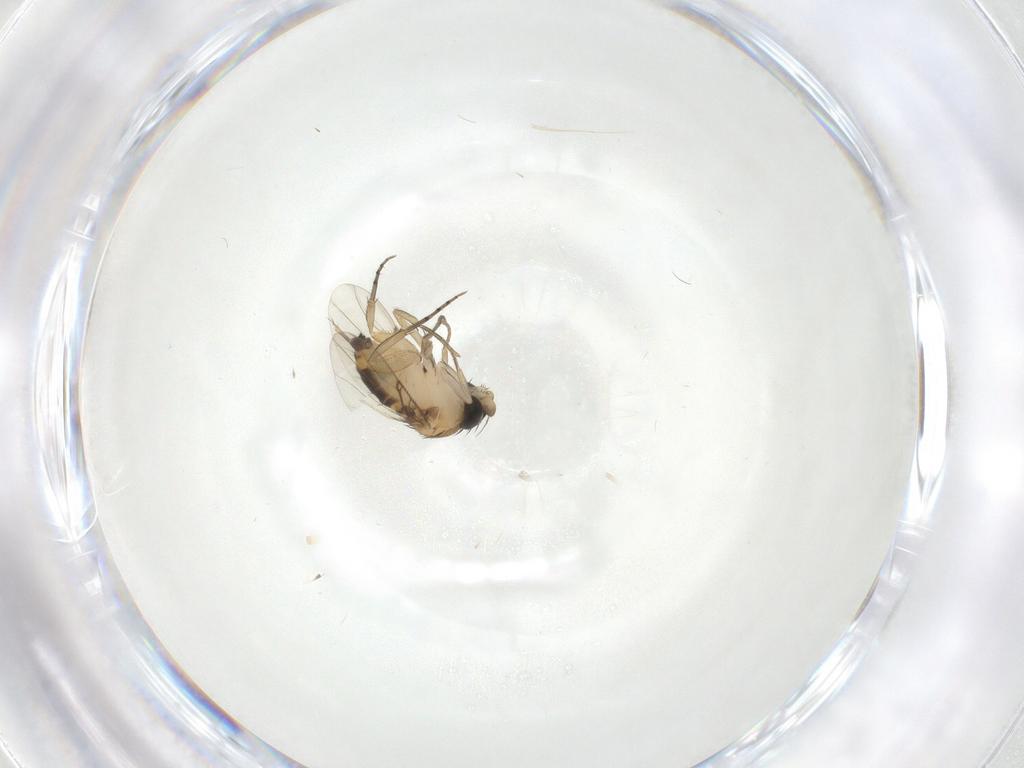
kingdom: Animalia
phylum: Arthropoda
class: Insecta
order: Diptera
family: Phoridae
